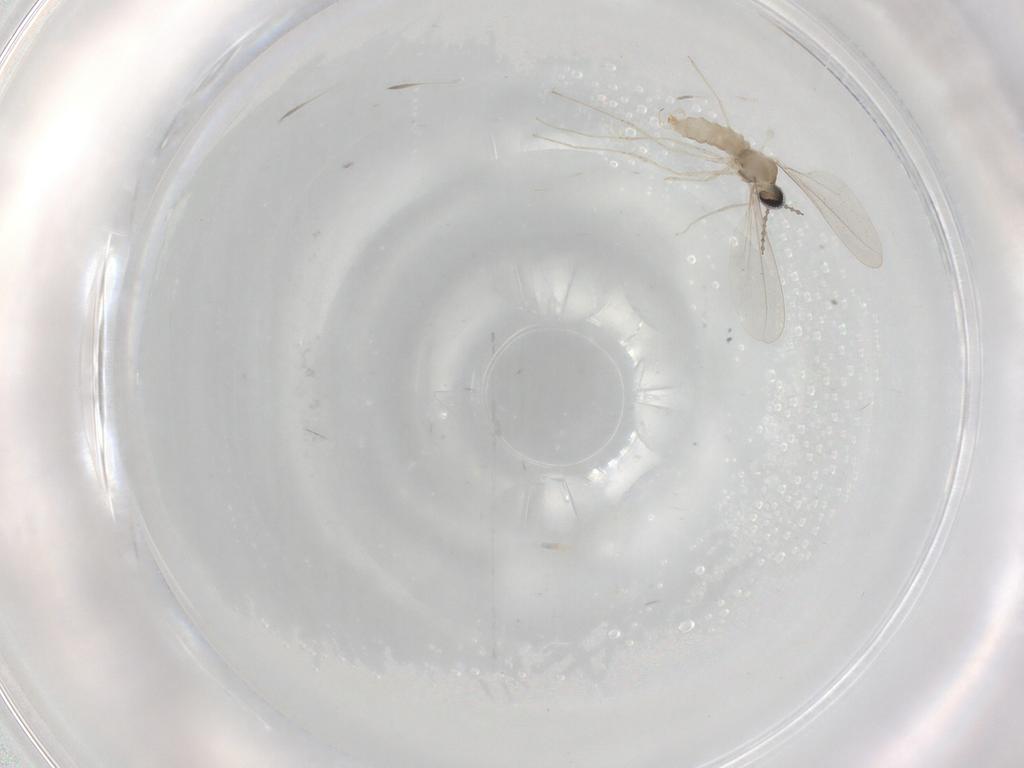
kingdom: Animalia
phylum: Arthropoda
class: Insecta
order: Diptera
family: Cecidomyiidae
